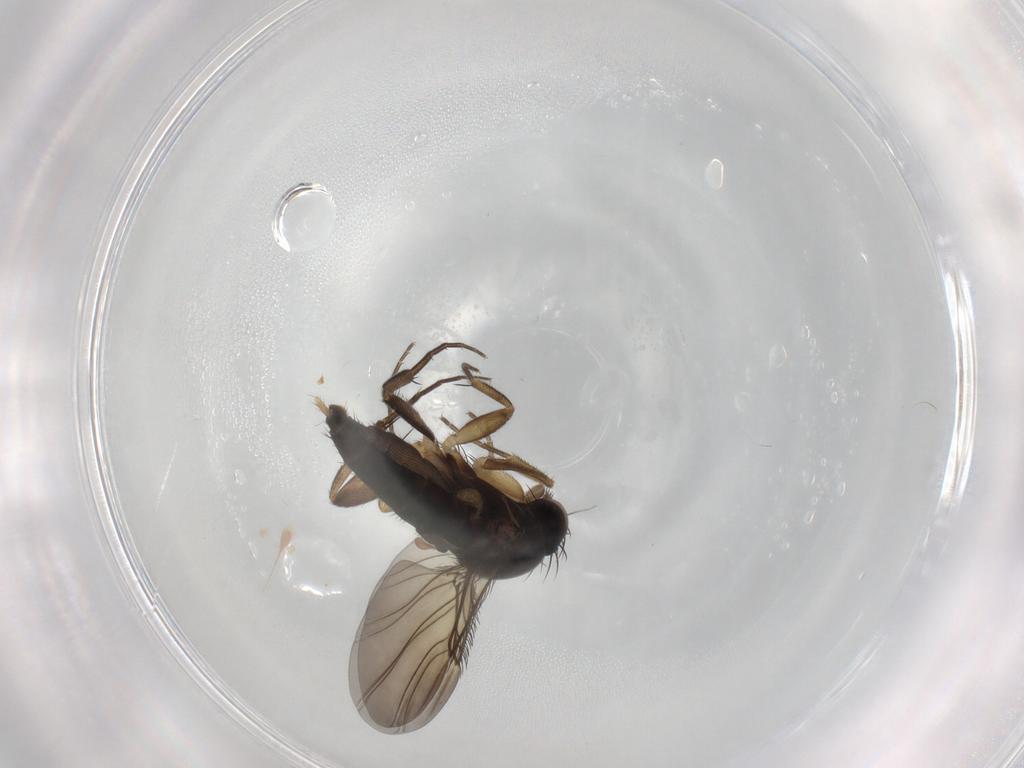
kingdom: Animalia
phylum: Arthropoda
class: Insecta
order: Diptera
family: Phoridae
